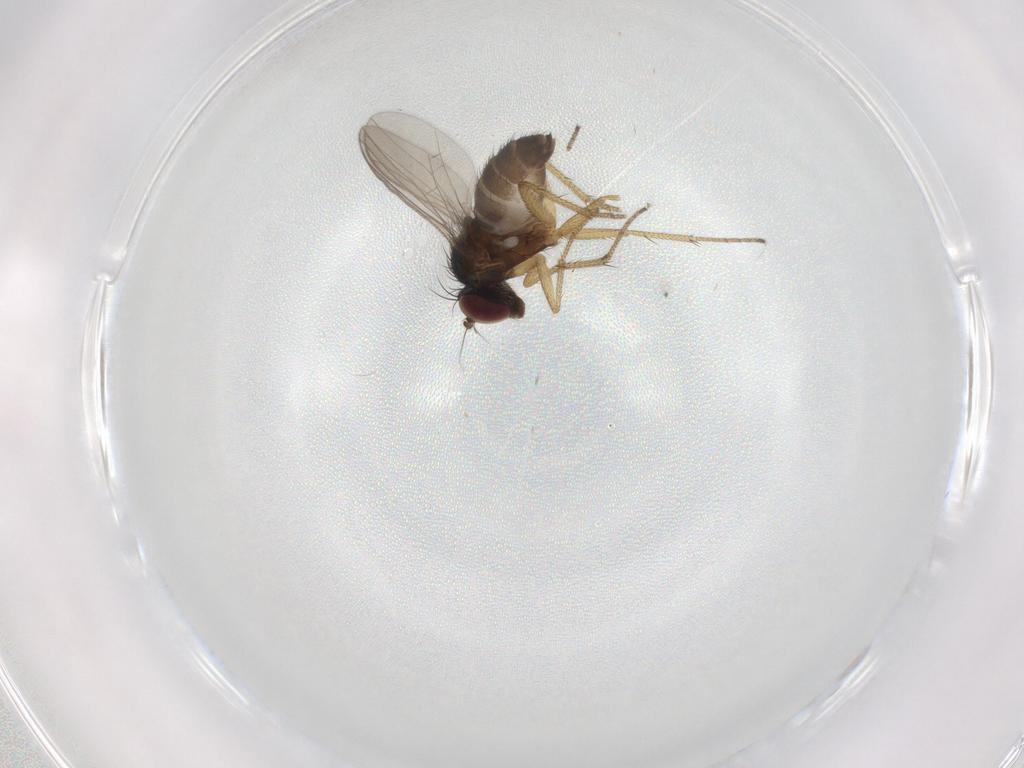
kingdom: Animalia
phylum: Arthropoda
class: Insecta
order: Diptera
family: Dolichopodidae
